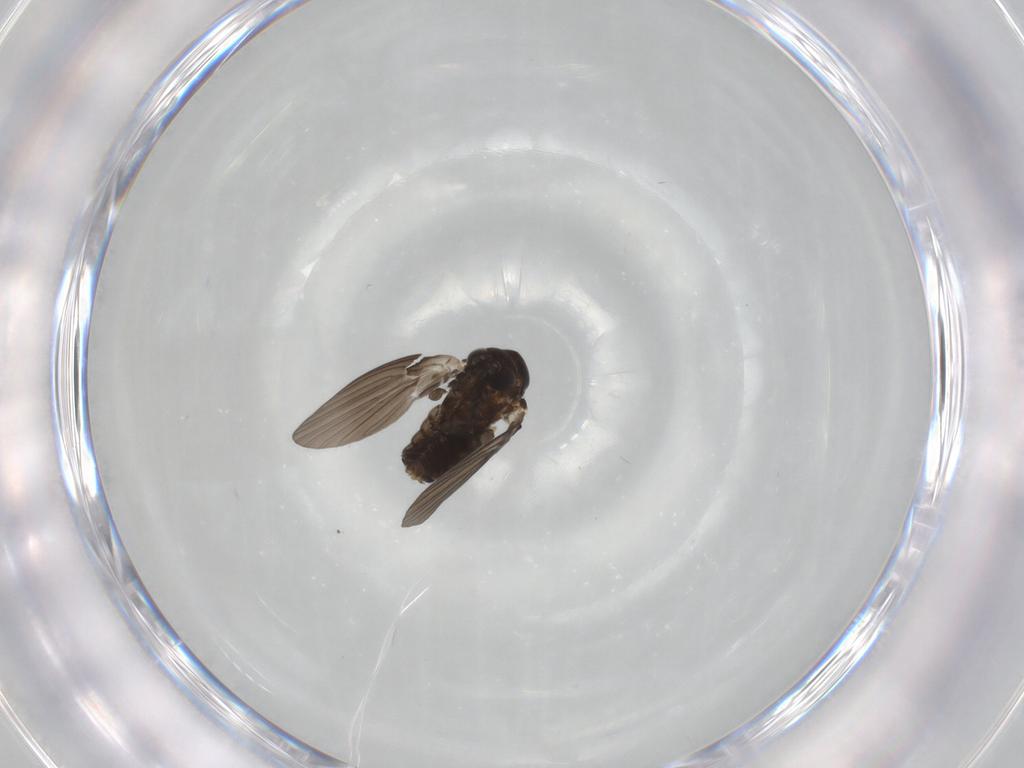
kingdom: Animalia
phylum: Arthropoda
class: Insecta
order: Diptera
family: Psychodidae
